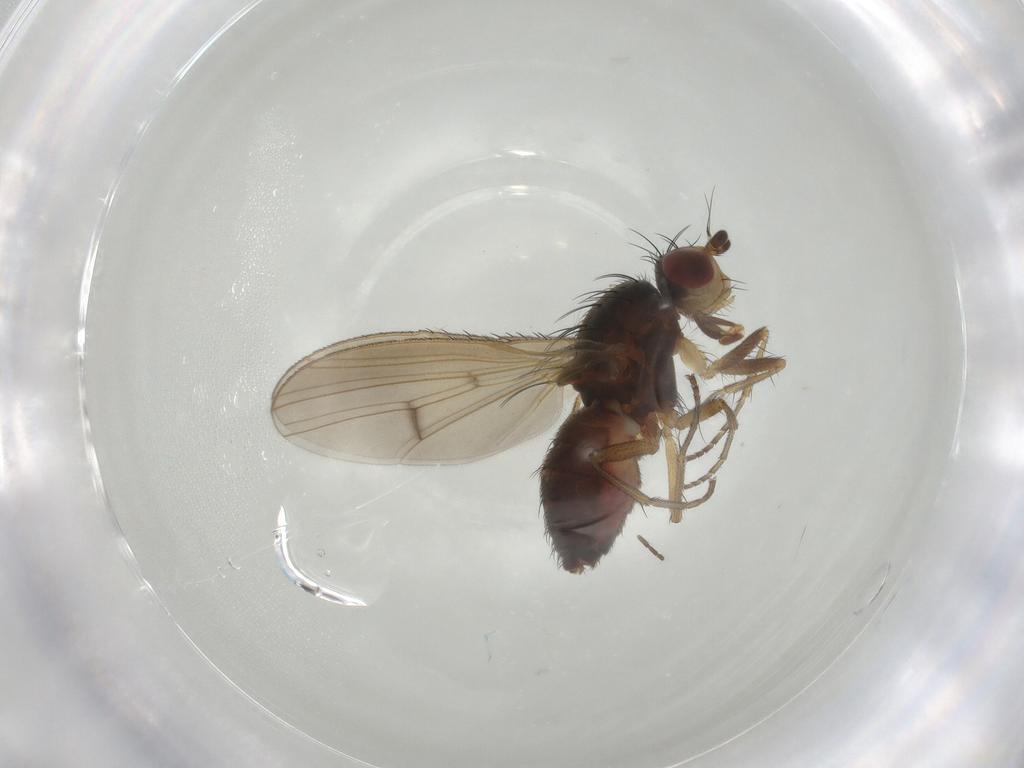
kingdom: Animalia
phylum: Arthropoda
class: Insecta
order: Diptera
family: Heleomyzidae
